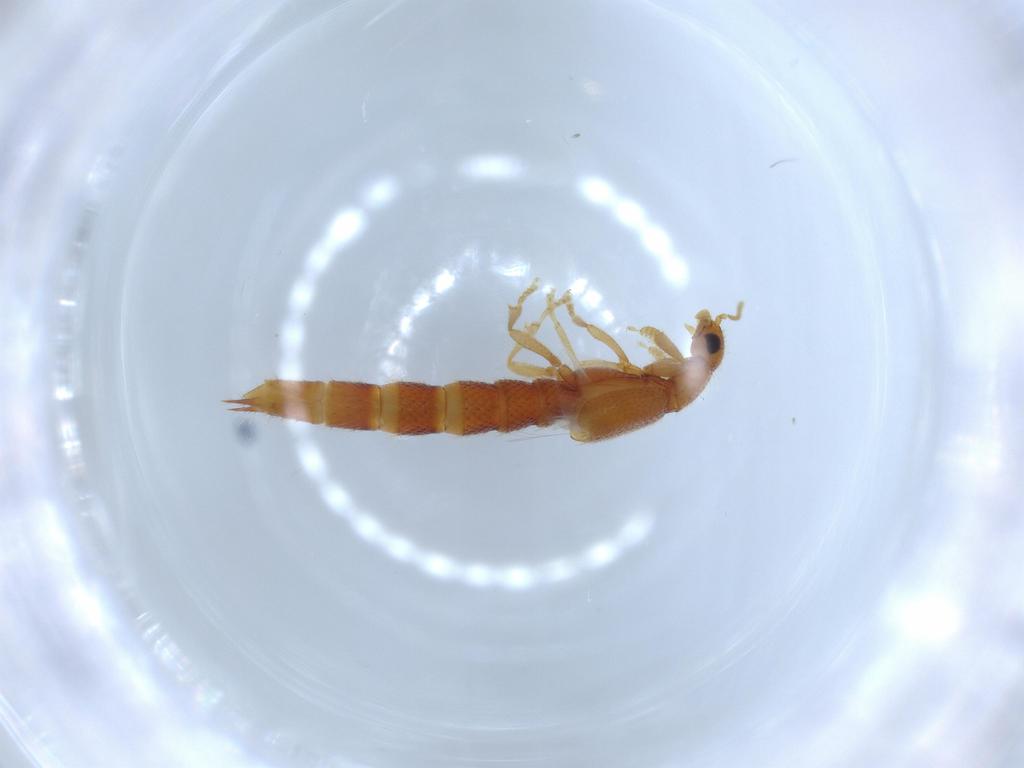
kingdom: Animalia
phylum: Arthropoda
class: Insecta
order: Coleoptera
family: Staphylinidae
